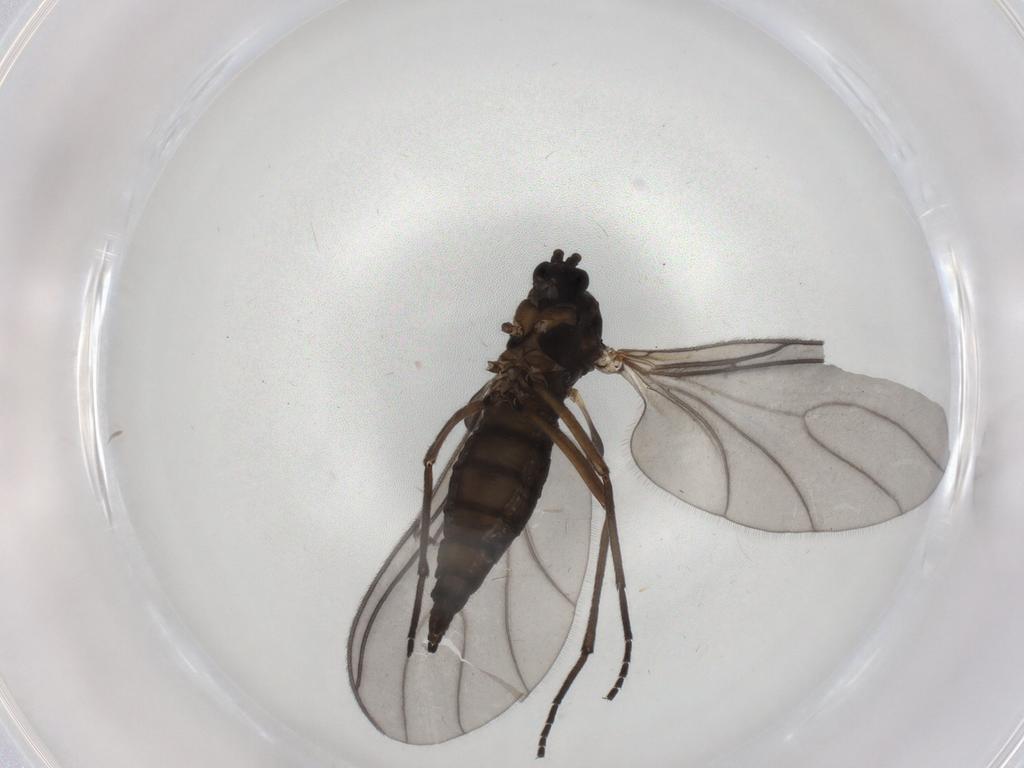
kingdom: Animalia
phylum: Arthropoda
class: Insecta
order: Diptera
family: Sciaridae
